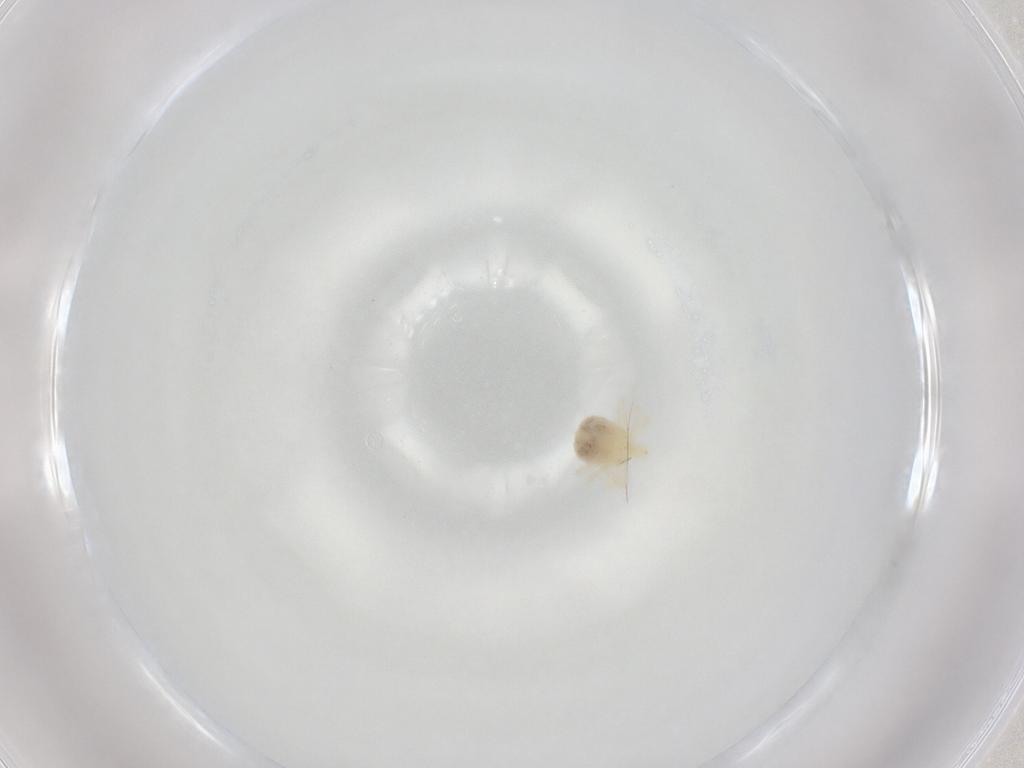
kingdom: Animalia
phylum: Arthropoda
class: Arachnida
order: Trombidiformes
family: Anystidae
